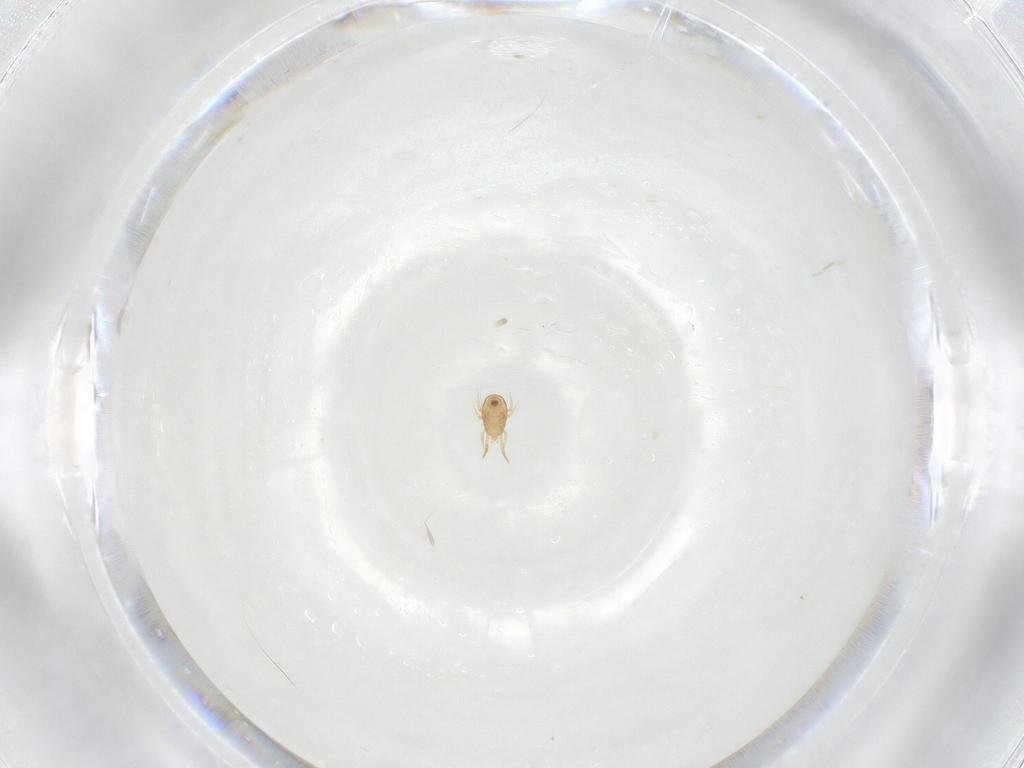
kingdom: Animalia
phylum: Arthropoda
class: Arachnida
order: Mesostigmata
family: Ameroseiidae
